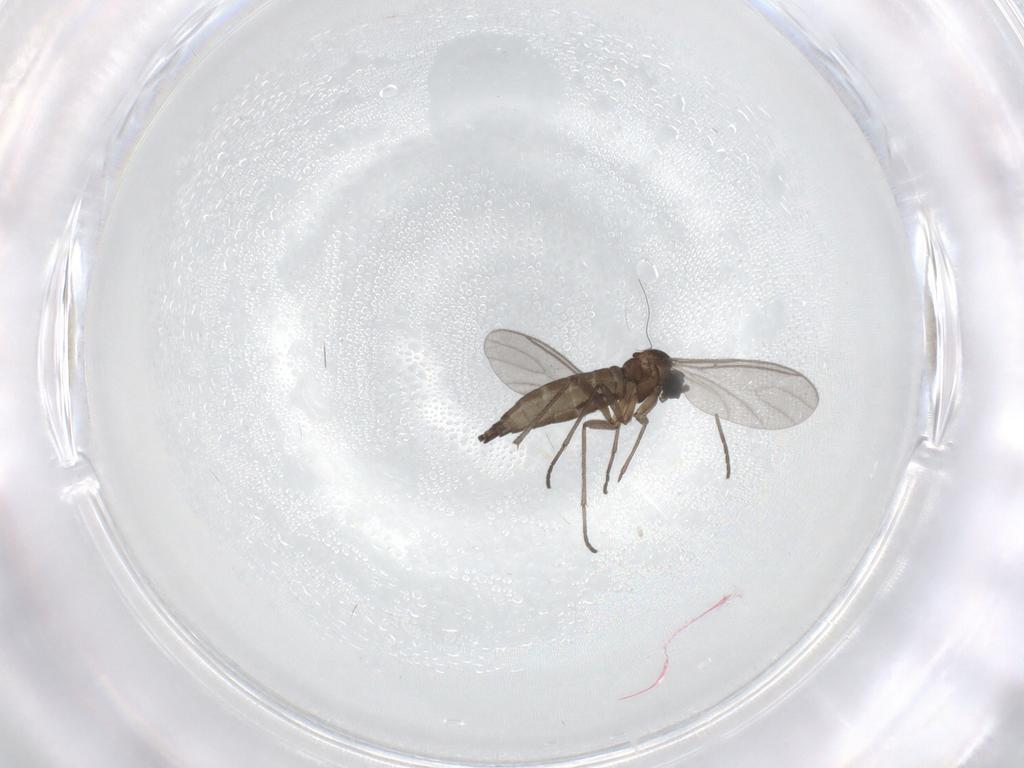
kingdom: Animalia
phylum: Arthropoda
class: Insecta
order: Diptera
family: Sciaridae
